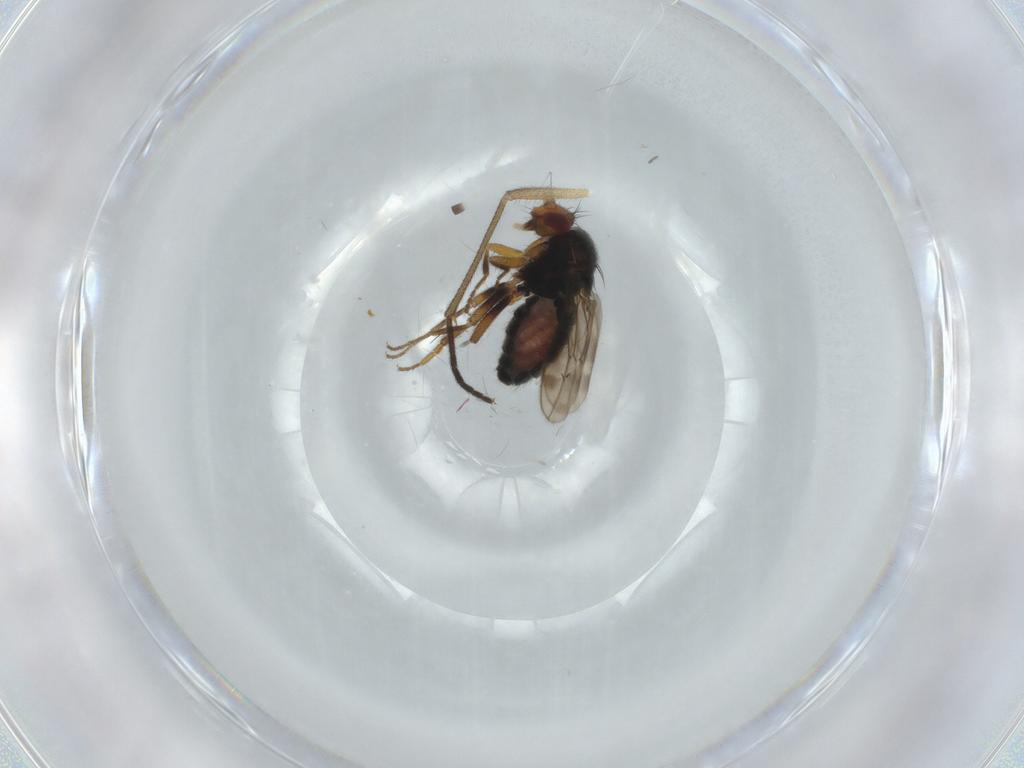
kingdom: Animalia
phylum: Arthropoda
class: Insecta
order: Diptera
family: Sphaeroceridae
